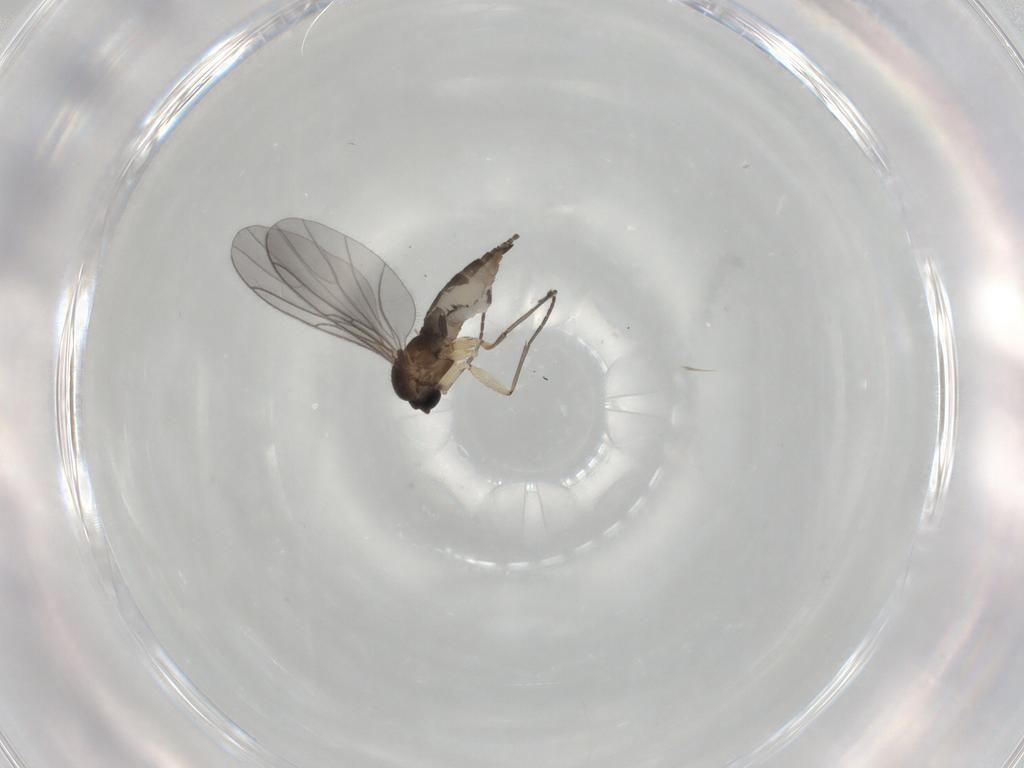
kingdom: Animalia
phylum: Arthropoda
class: Insecta
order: Diptera
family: Sciaridae
